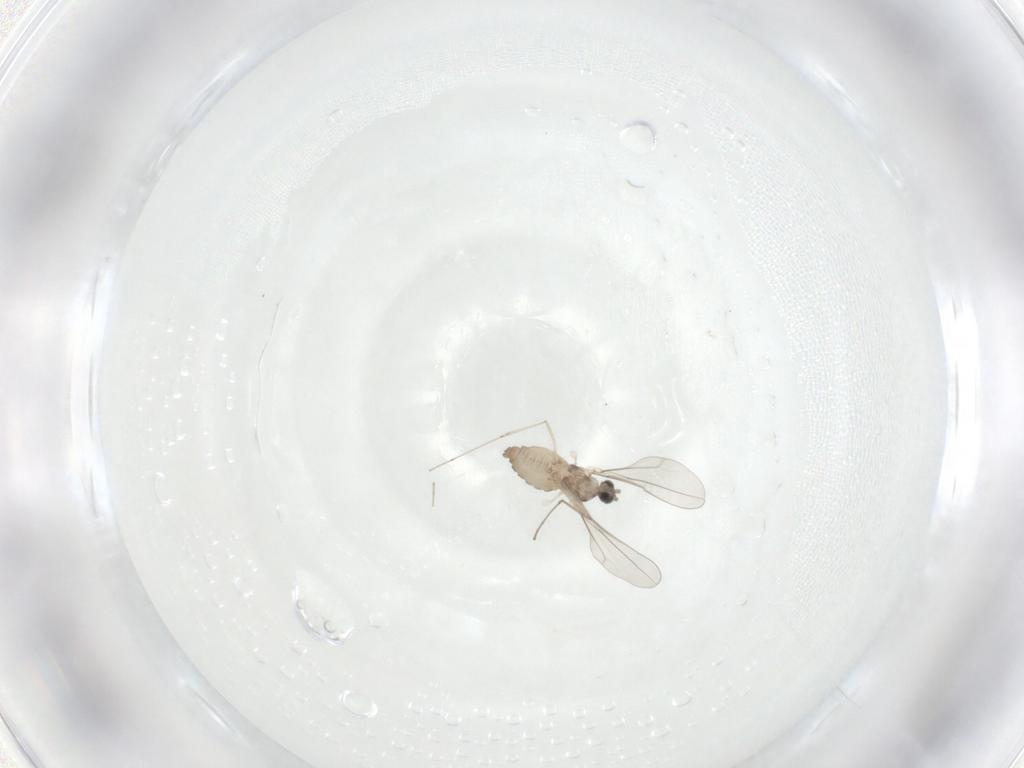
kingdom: Animalia
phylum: Arthropoda
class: Insecta
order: Diptera
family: Cecidomyiidae
